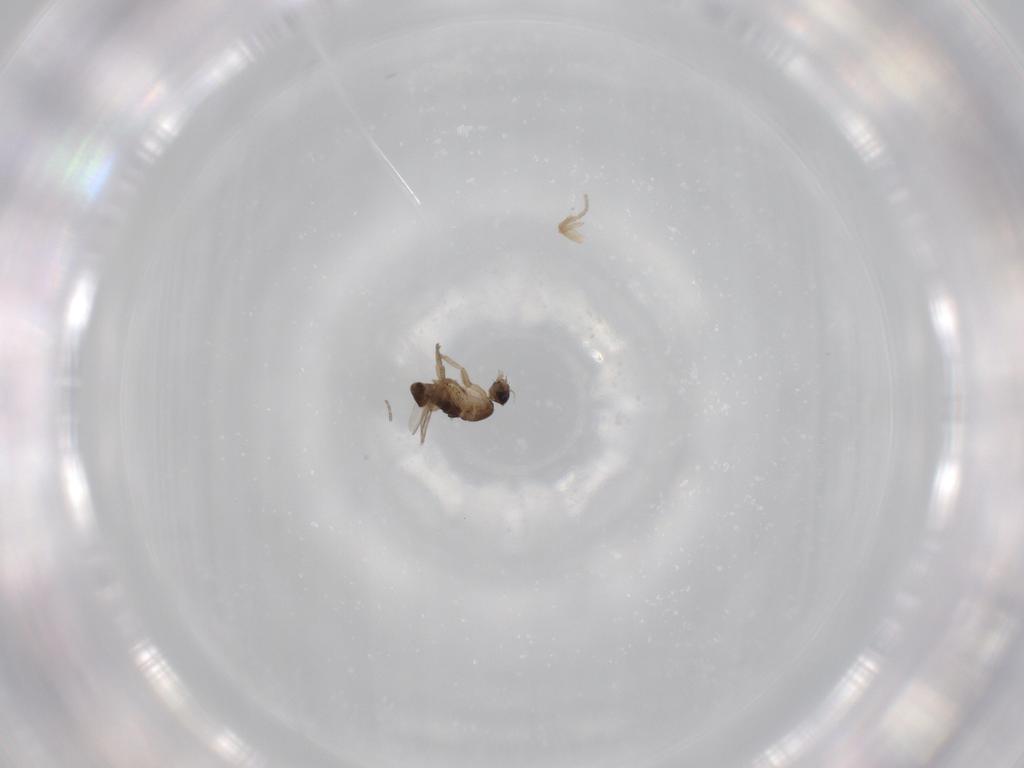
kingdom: Animalia
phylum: Arthropoda
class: Insecta
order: Diptera
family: Phoridae
